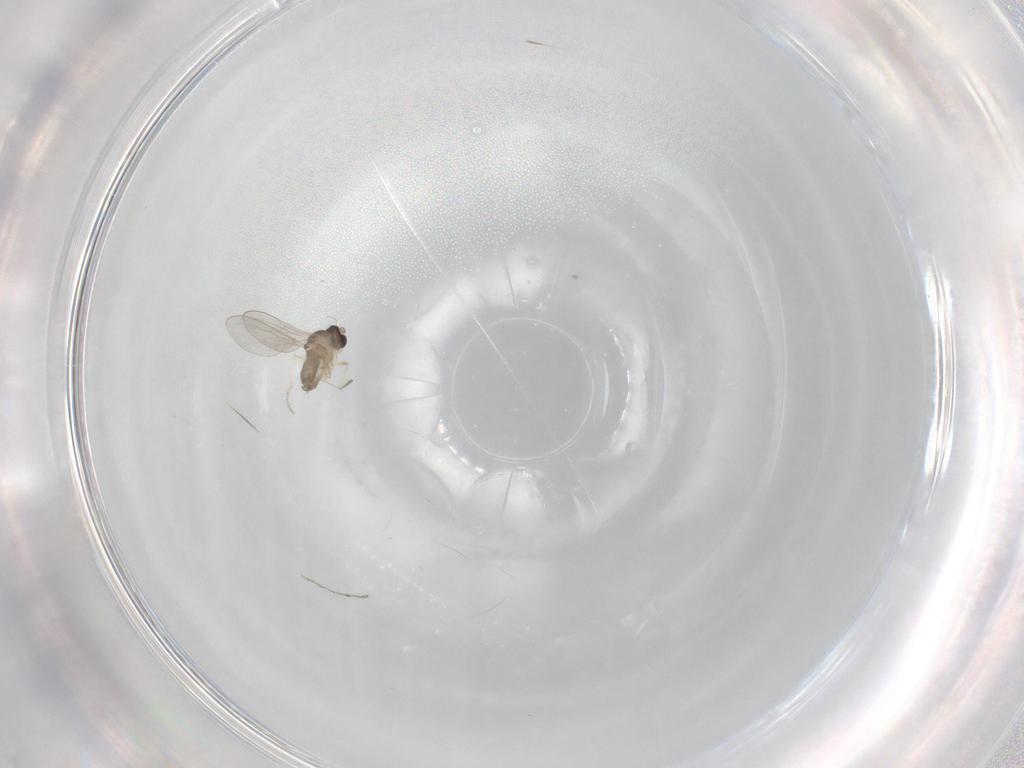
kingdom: Animalia
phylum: Arthropoda
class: Insecta
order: Diptera
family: Cecidomyiidae
